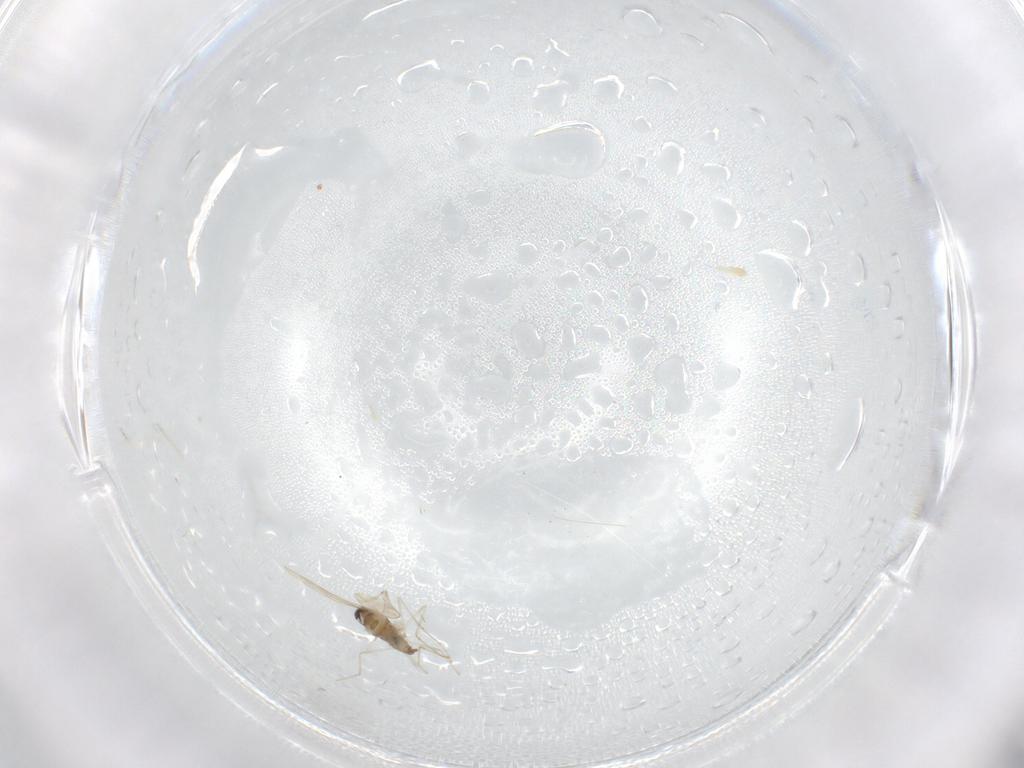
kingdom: Animalia
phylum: Arthropoda
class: Insecta
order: Diptera
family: Cecidomyiidae
